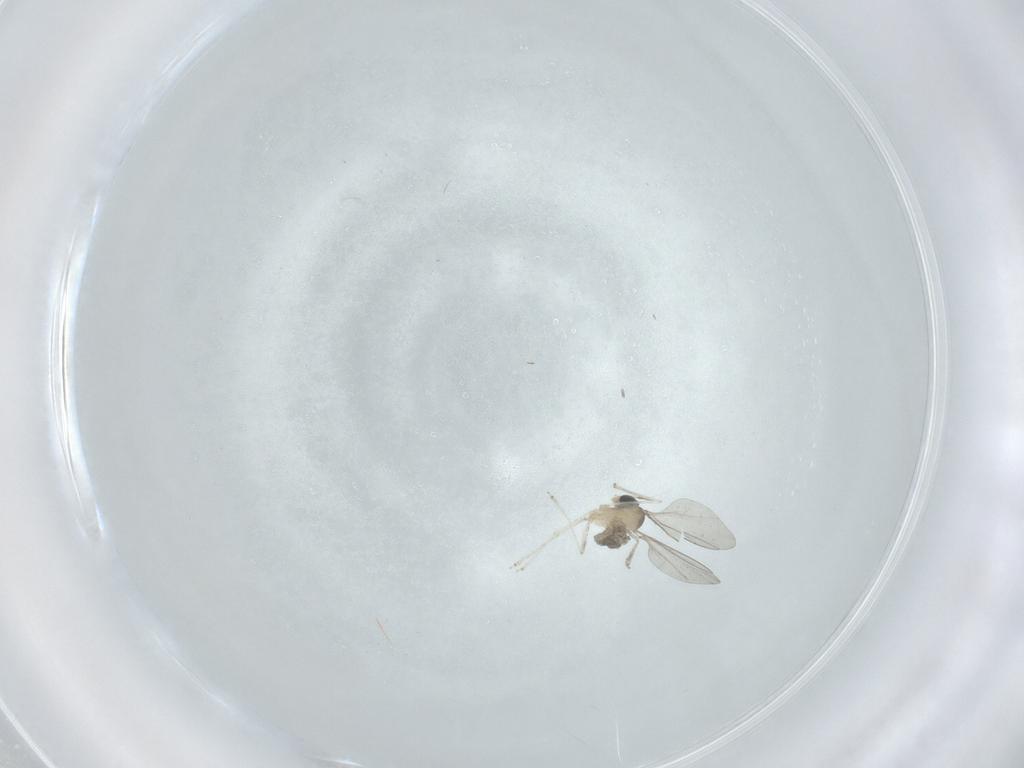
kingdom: Animalia
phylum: Arthropoda
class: Insecta
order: Diptera
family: Cecidomyiidae
